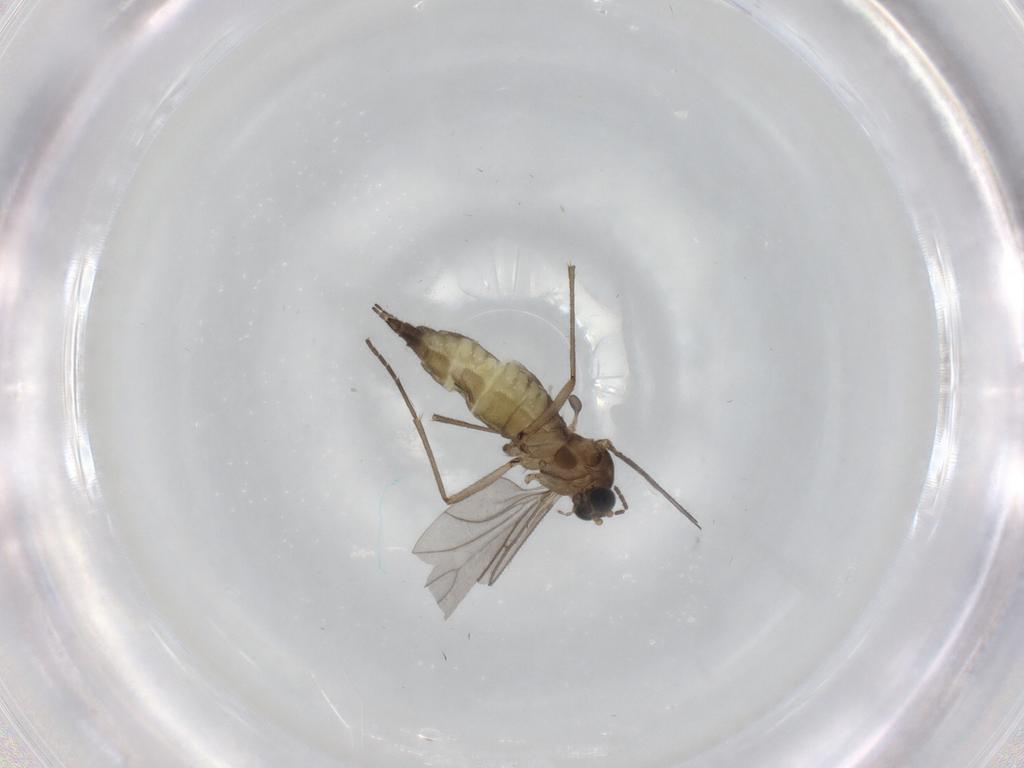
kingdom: Animalia
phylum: Arthropoda
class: Insecta
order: Diptera
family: Cecidomyiidae
